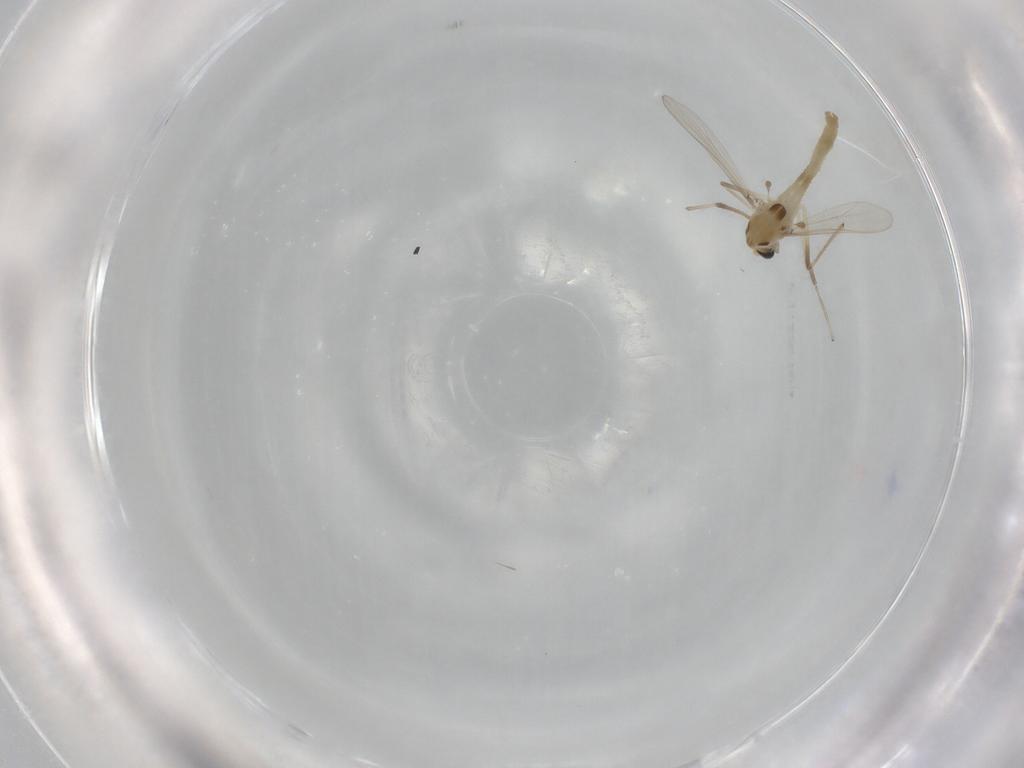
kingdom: Animalia
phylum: Arthropoda
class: Insecta
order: Diptera
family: Chironomidae
